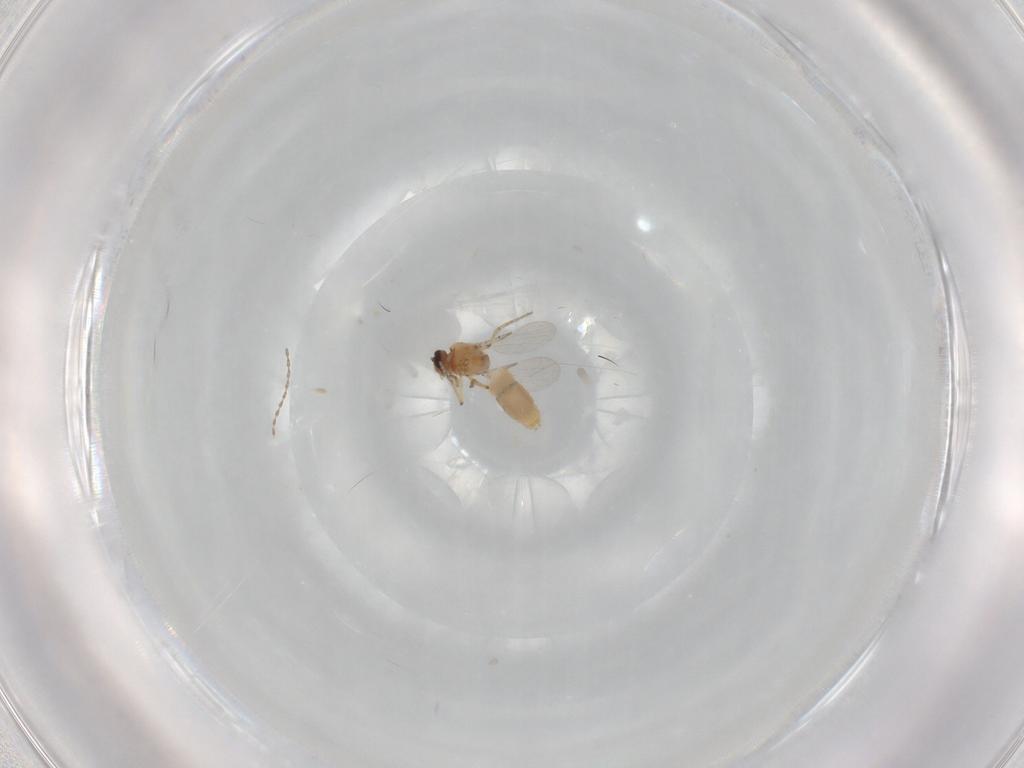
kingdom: Animalia
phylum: Arthropoda
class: Insecta
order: Diptera
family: Ceratopogonidae
